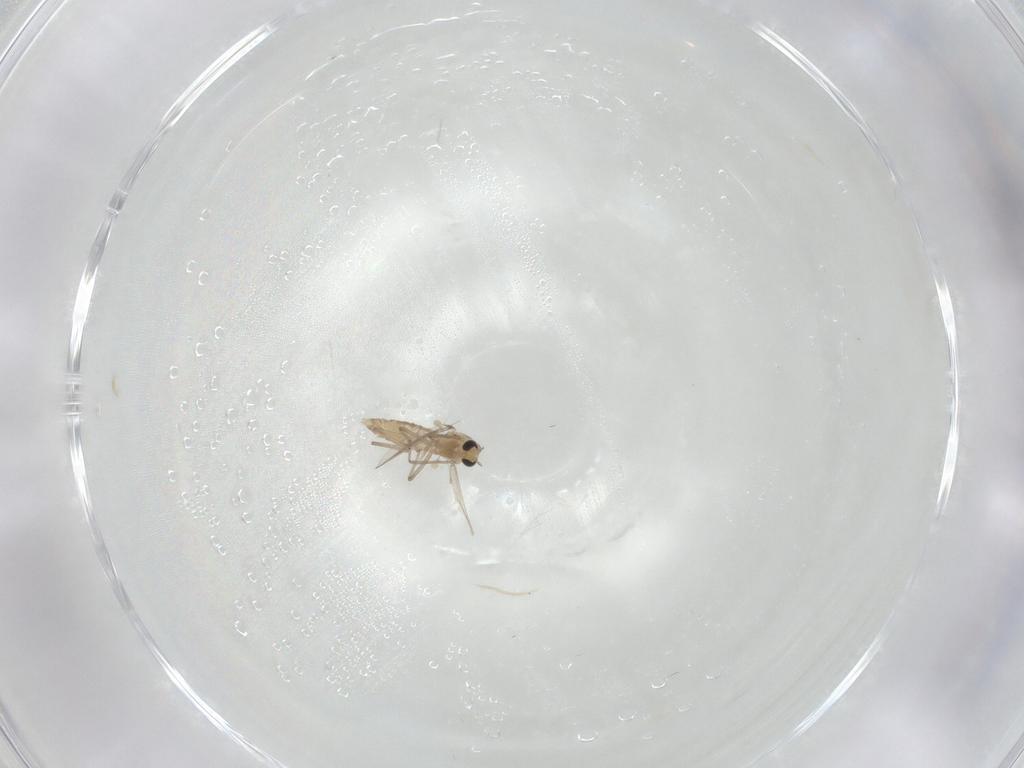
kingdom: Animalia
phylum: Arthropoda
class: Insecta
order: Diptera
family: Chironomidae
